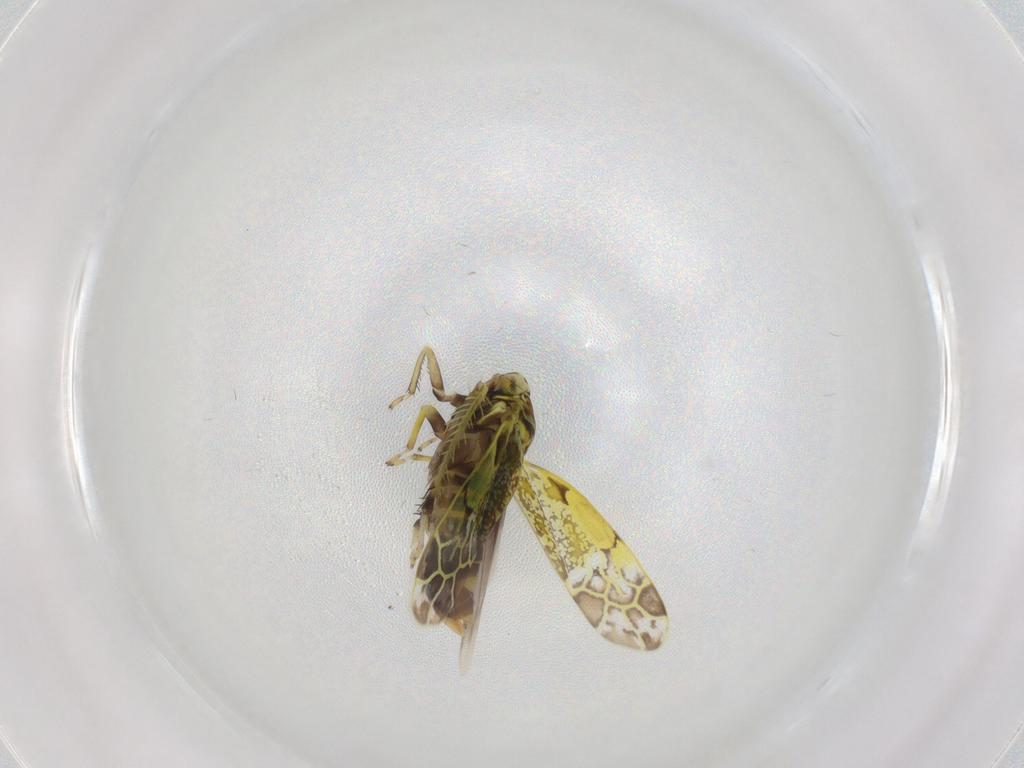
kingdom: Animalia
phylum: Arthropoda
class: Insecta
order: Hemiptera
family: Cicadellidae
